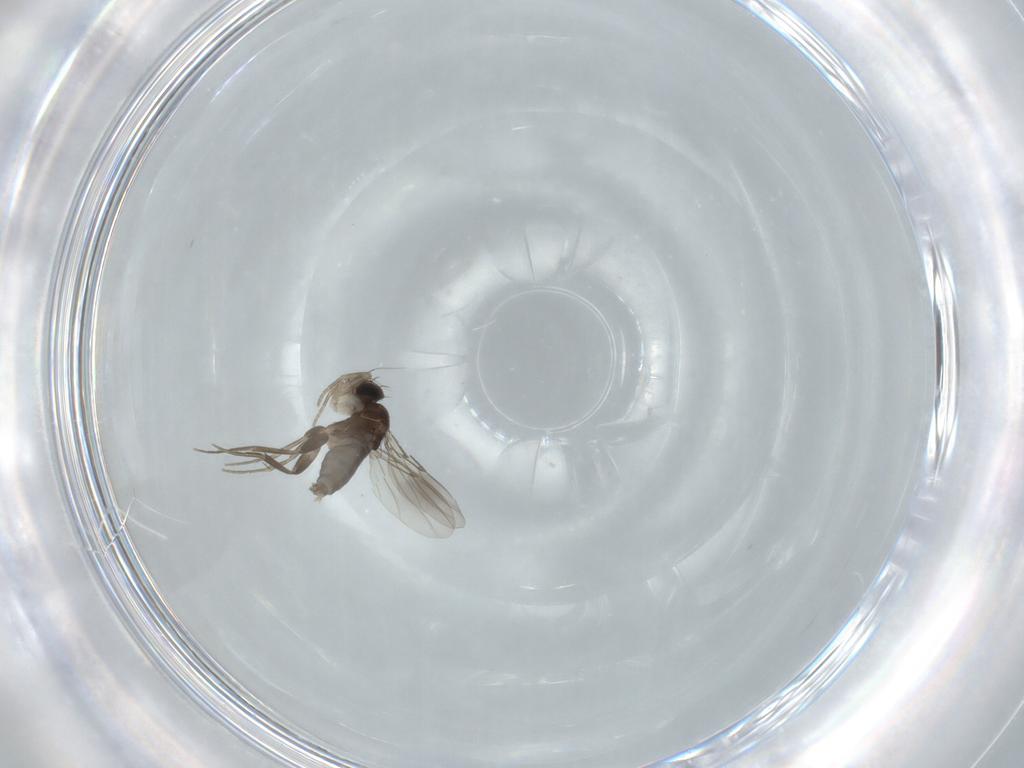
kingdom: Animalia
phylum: Arthropoda
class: Insecta
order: Diptera
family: Phoridae
